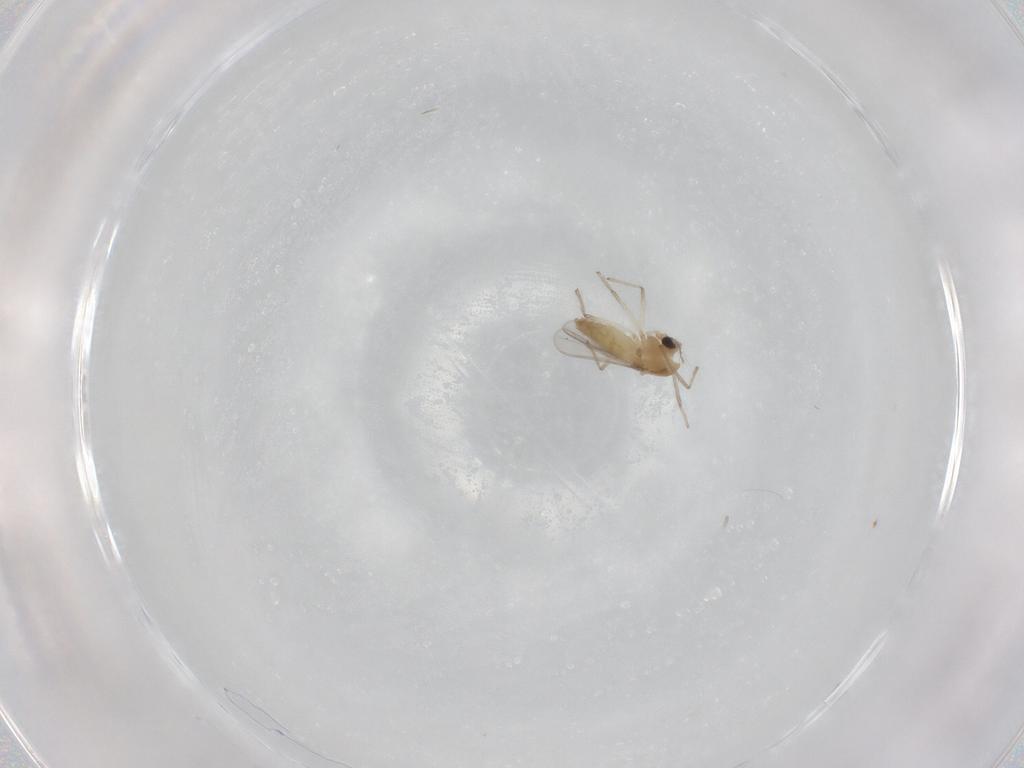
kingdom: Animalia
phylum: Arthropoda
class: Insecta
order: Diptera
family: Chironomidae
